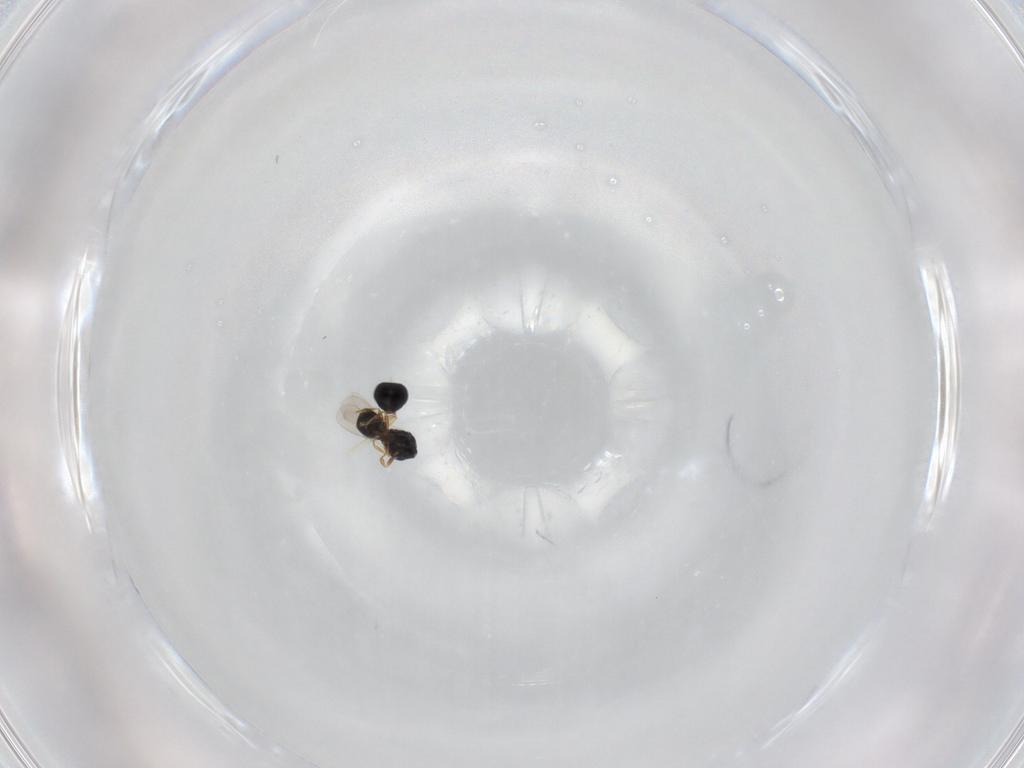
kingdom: Animalia
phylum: Arthropoda
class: Insecta
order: Hymenoptera
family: Scelionidae
